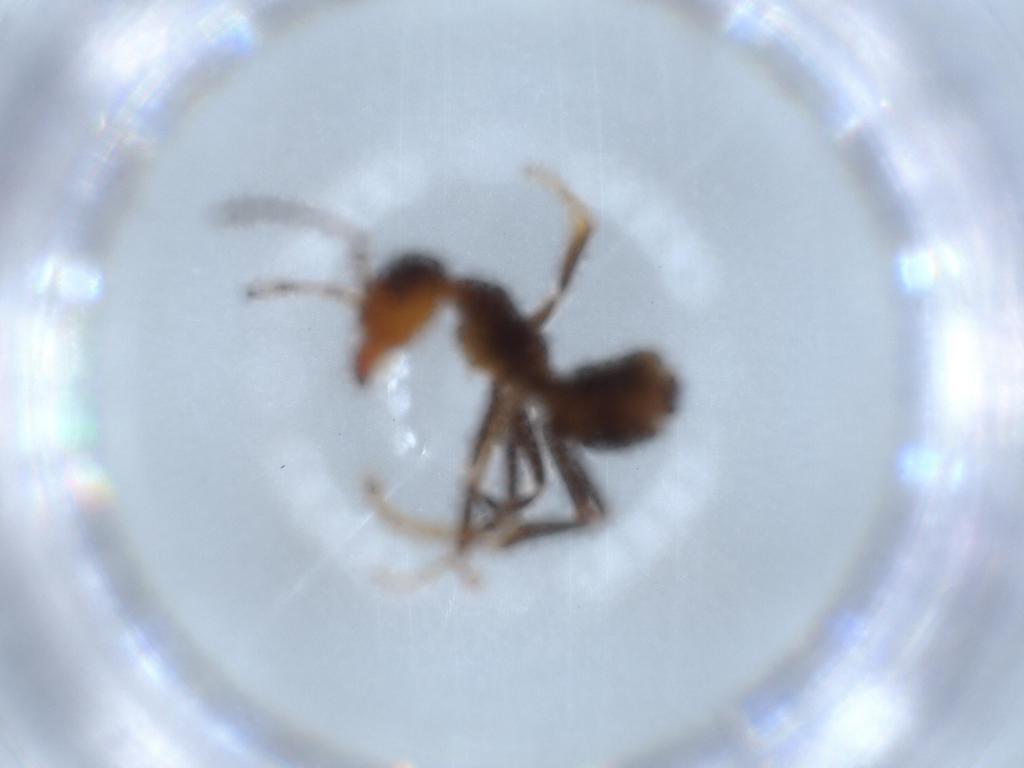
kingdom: Animalia
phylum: Arthropoda
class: Insecta
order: Hymenoptera
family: Formicidae
